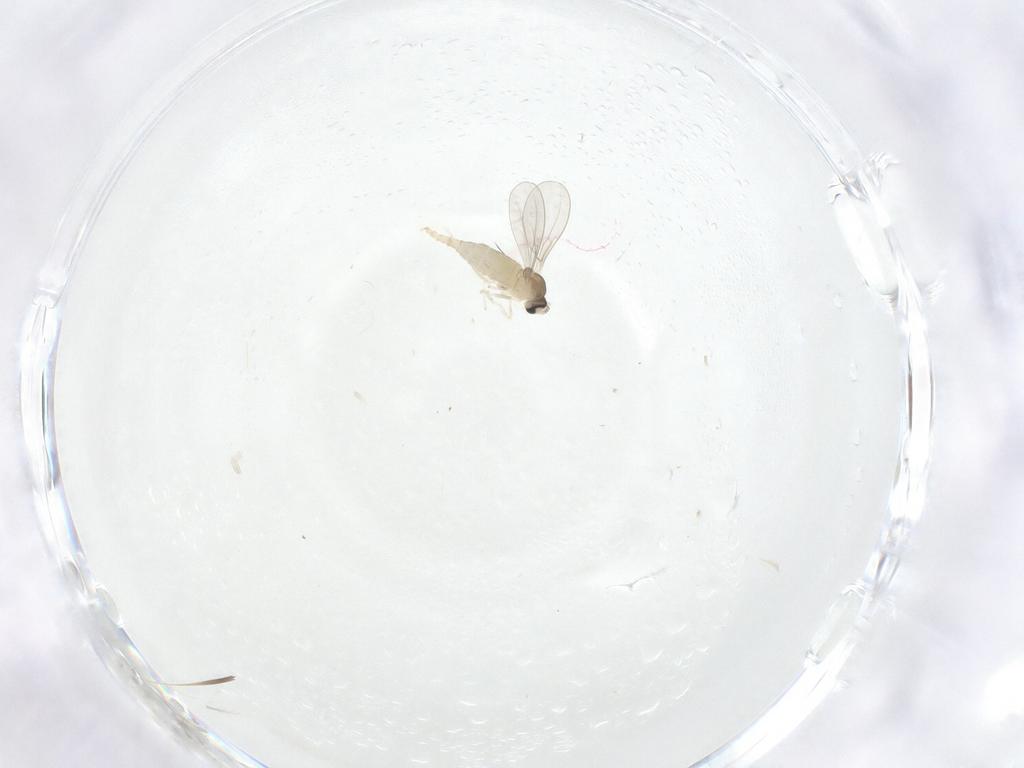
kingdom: Animalia
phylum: Arthropoda
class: Insecta
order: Diptera
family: Cecidomyiidae
